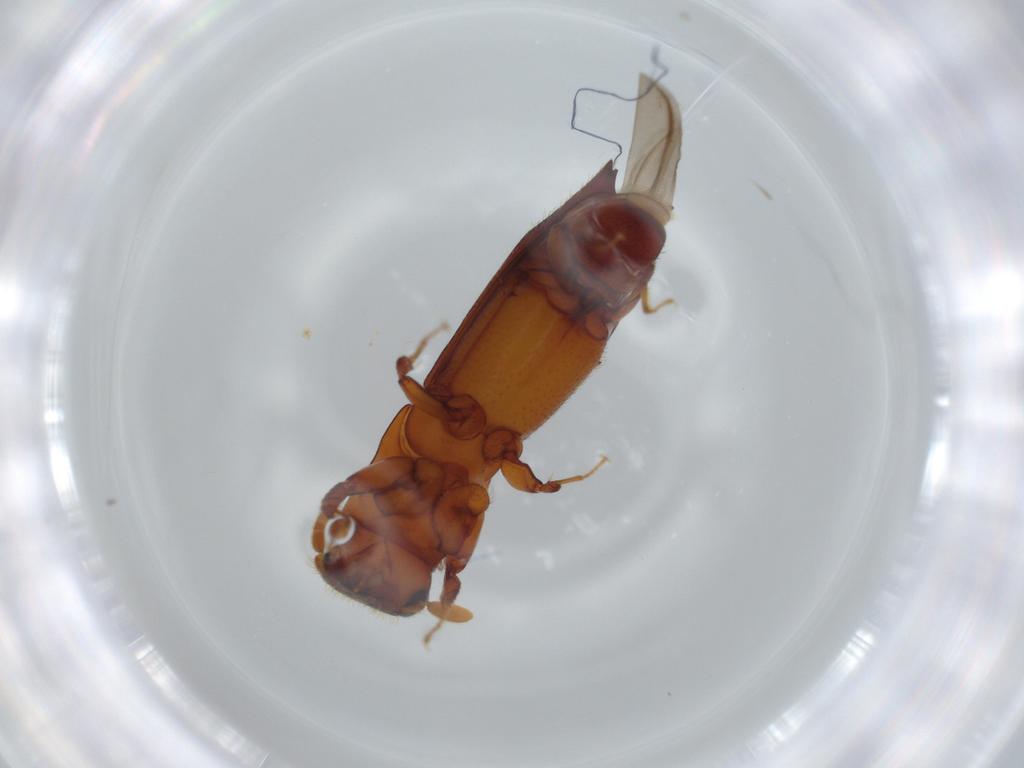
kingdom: Animalia
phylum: Arthropoda
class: Insecta
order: Coleoptera
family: Curculionidae
